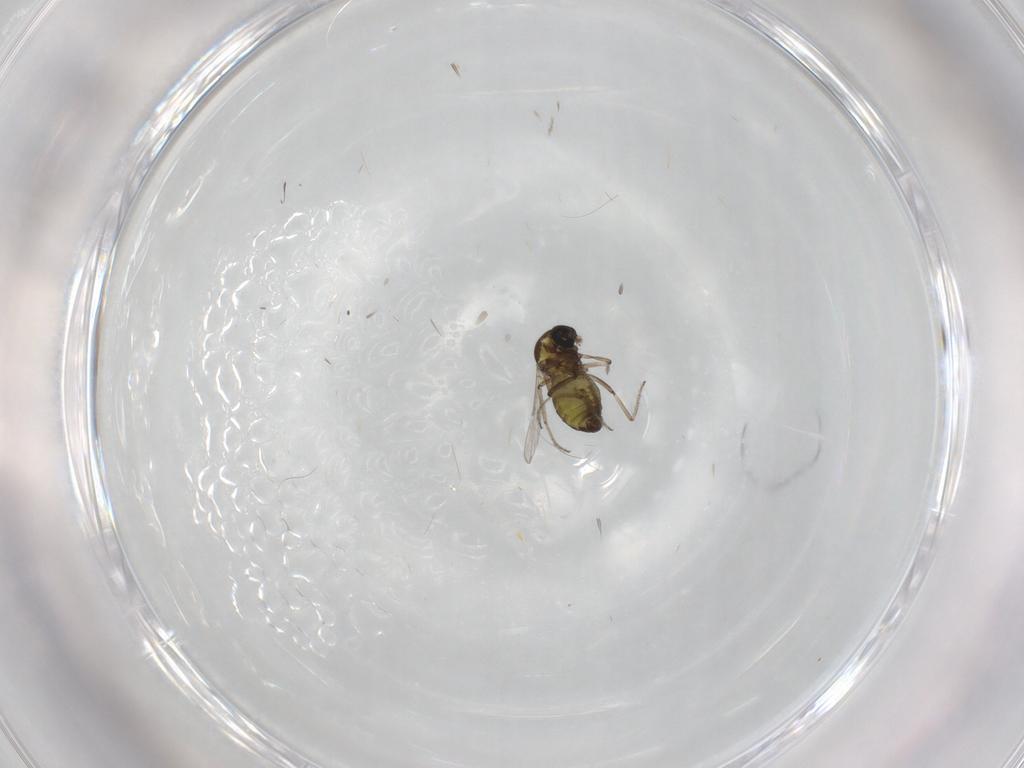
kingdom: Animalia
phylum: Arthropoda
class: Insecta
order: Diptera
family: Ceratopogonidae
